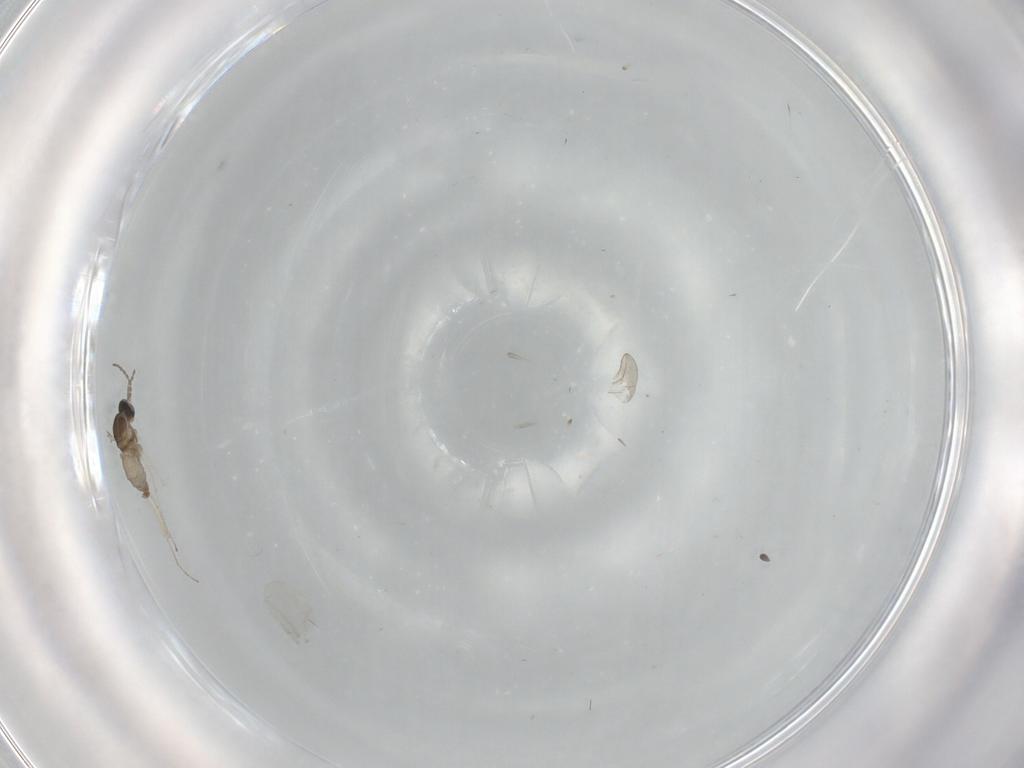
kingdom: Animalia
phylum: Arthropoda
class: Insecta
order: Diptera
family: Cecidomyiidae
